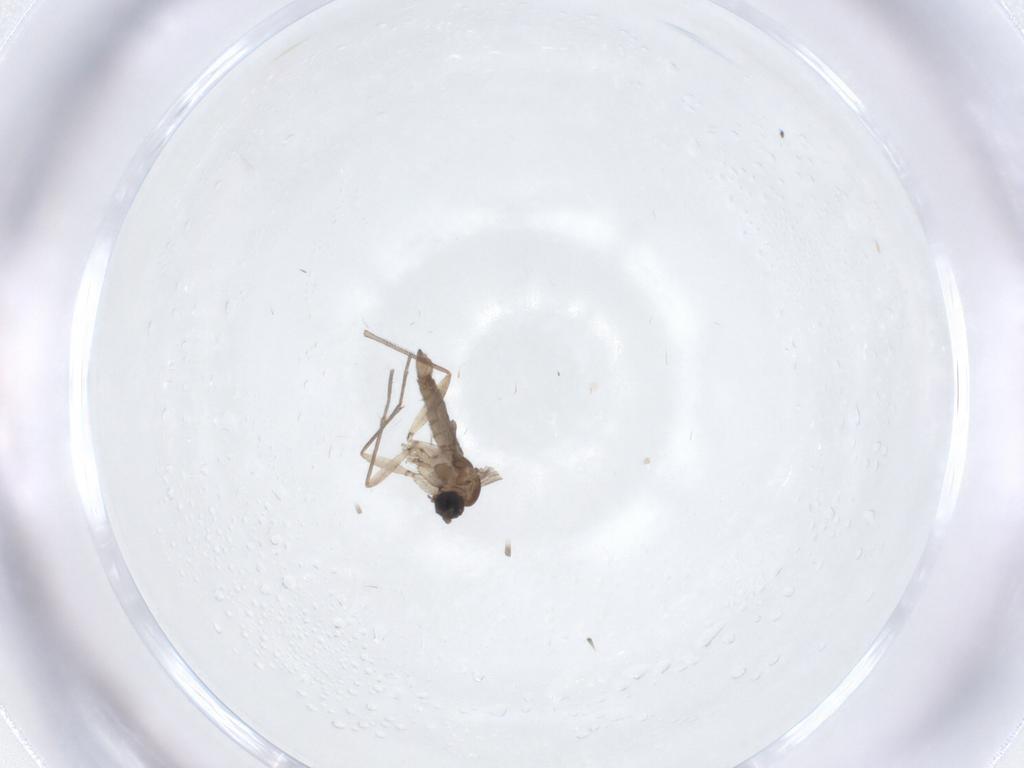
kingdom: Animalia
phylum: Arthropoda
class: Insecta
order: Diptera
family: Sciaridae
